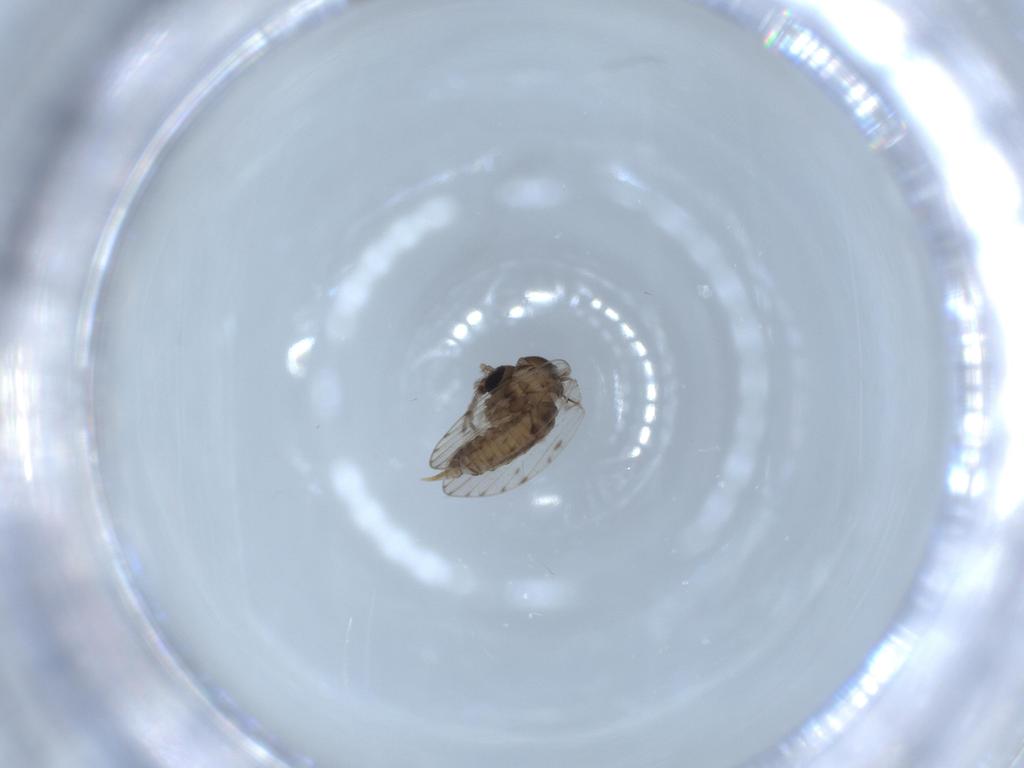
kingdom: Animalia
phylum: Arthropoda
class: Insecta
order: Diptera
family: Psychodidae
